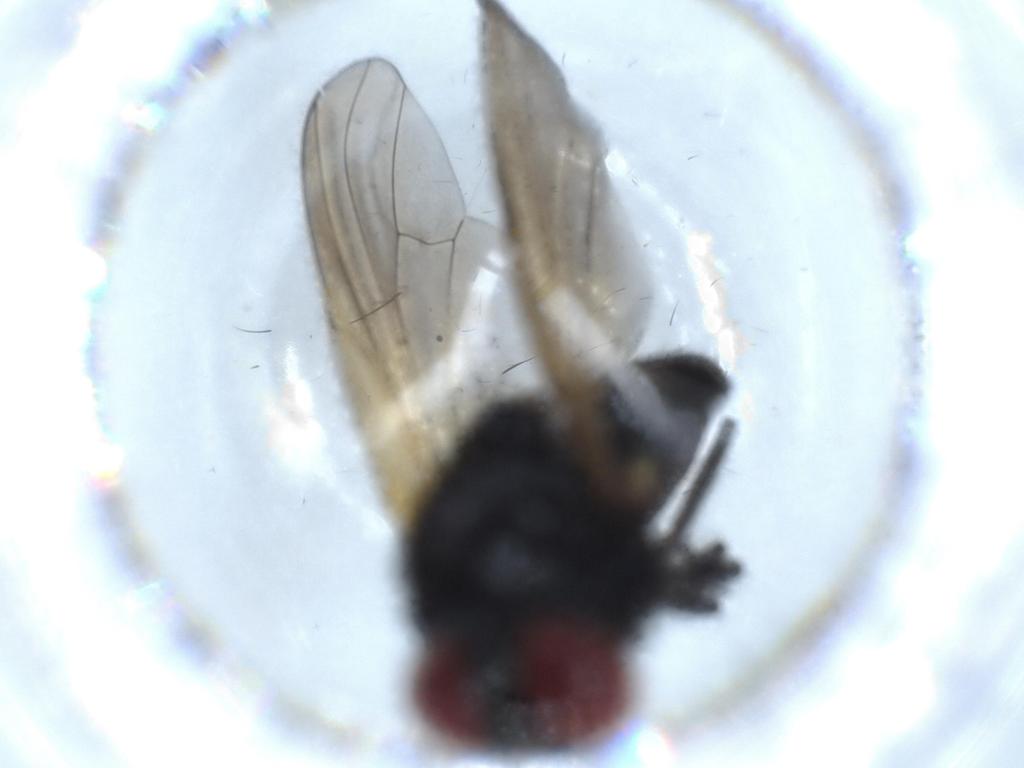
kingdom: Animalia
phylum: Arthropoda
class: Insecta
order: Diptera
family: Sciaridae
